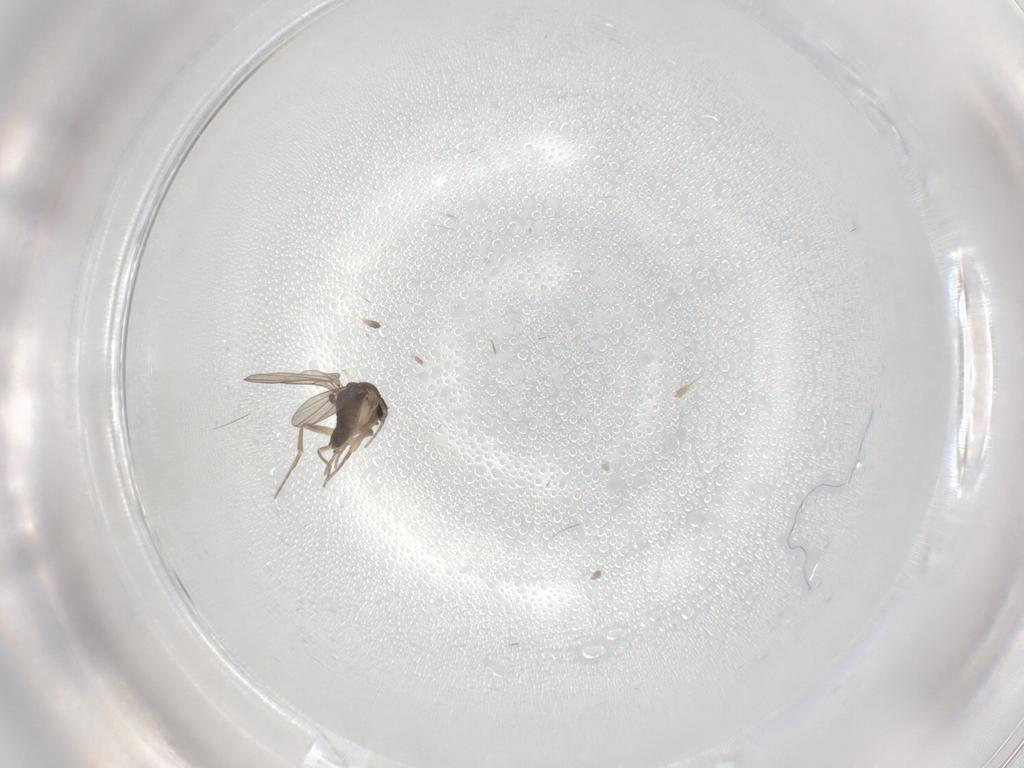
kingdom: Animalia
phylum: Arthropoda
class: Insecta
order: Diptera
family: Phoridae
